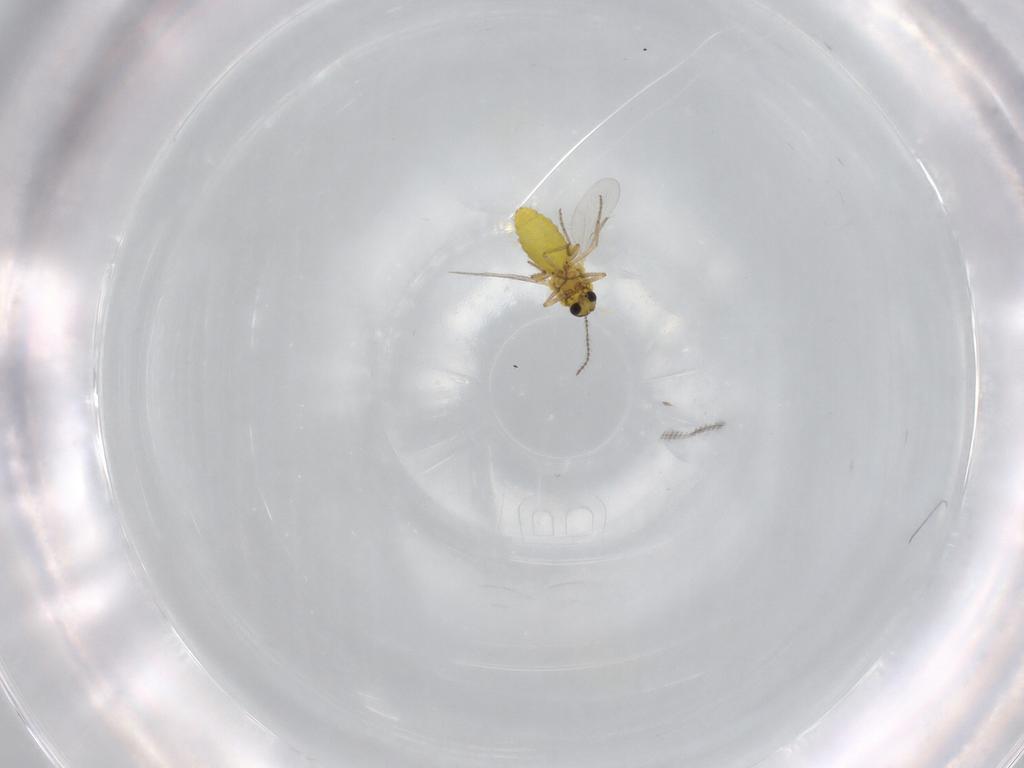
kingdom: Animalia
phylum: Arthropoda
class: Insecta
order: Diptera
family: Ceratopogonidae
